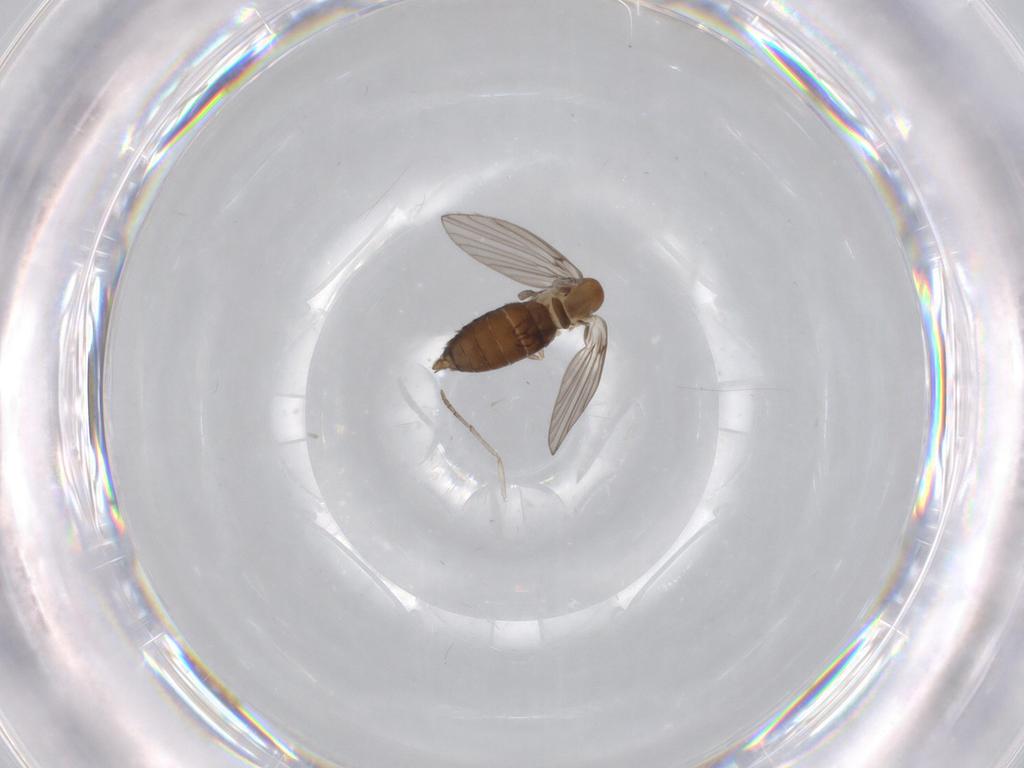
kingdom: Animalia
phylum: Arthropoda
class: Insecta
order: Diptera
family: Psychodidae
